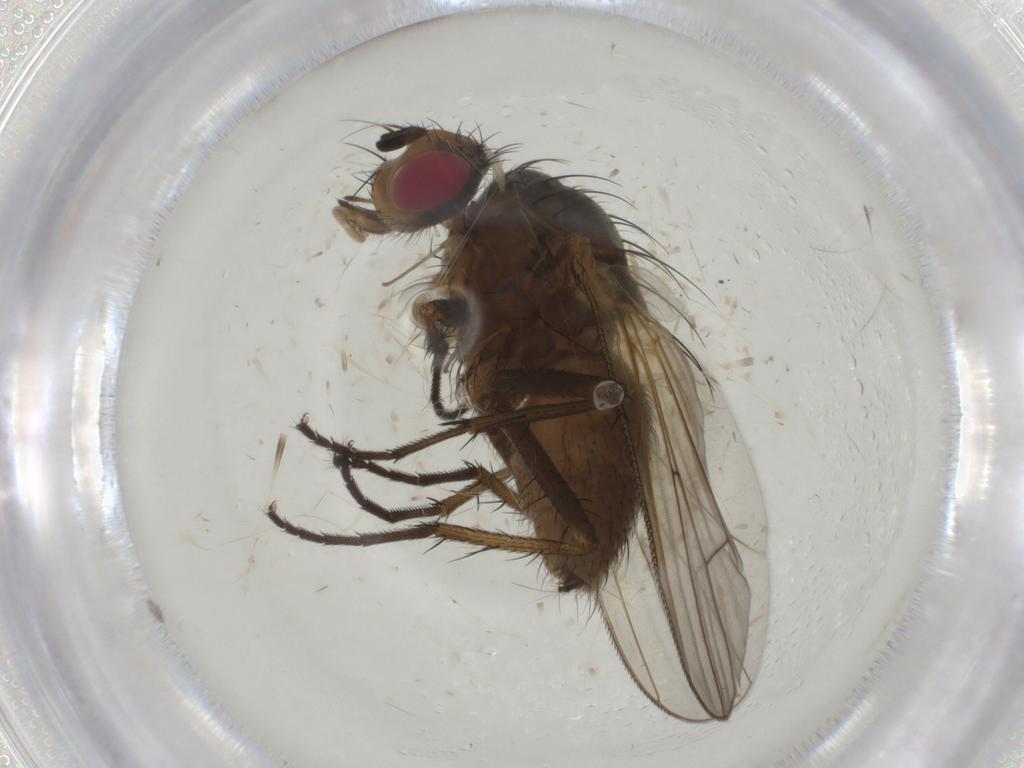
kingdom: Animalia
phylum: Arthropoda
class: Insecta
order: Diptera
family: Anthomyiidae
